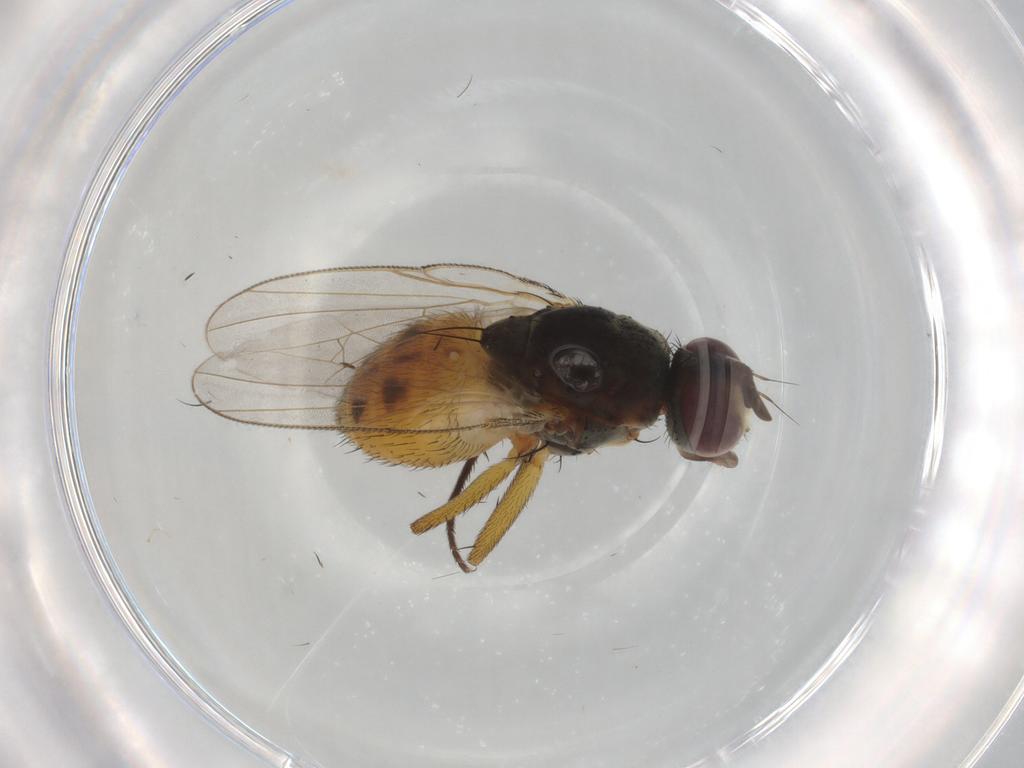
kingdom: Animalia
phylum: Arthropoda
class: Insecta
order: Diptera
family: Muscidae
